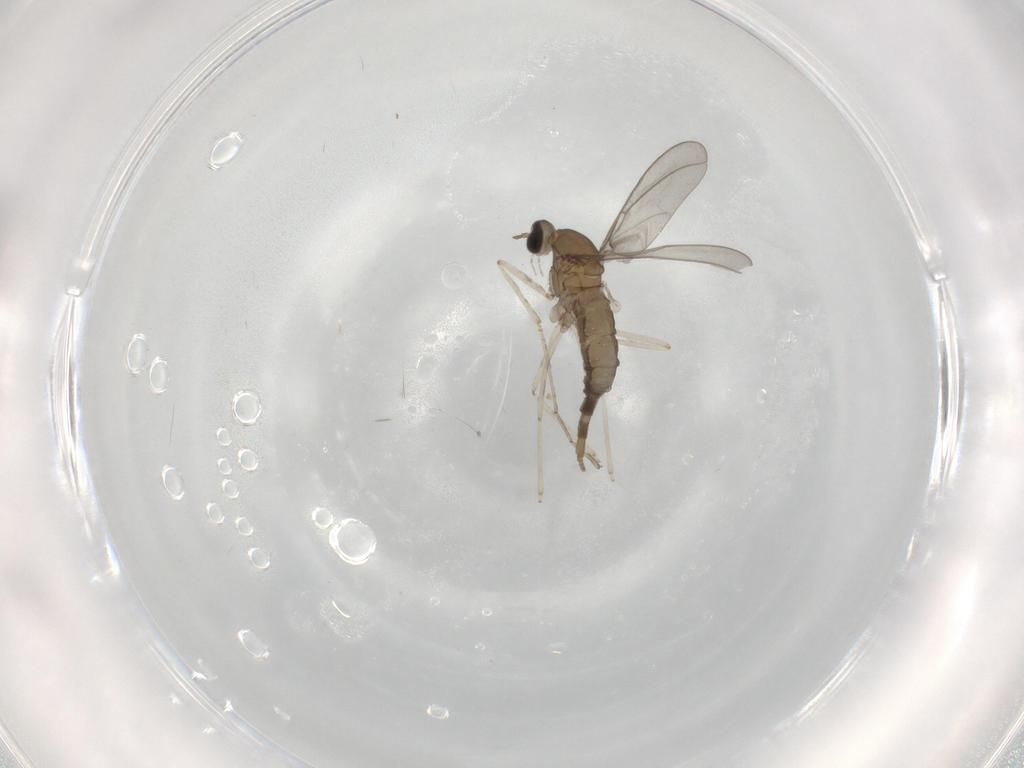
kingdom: Animalia
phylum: Arthropoda
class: Insecta
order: Diptera
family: Cecidomyiidae
